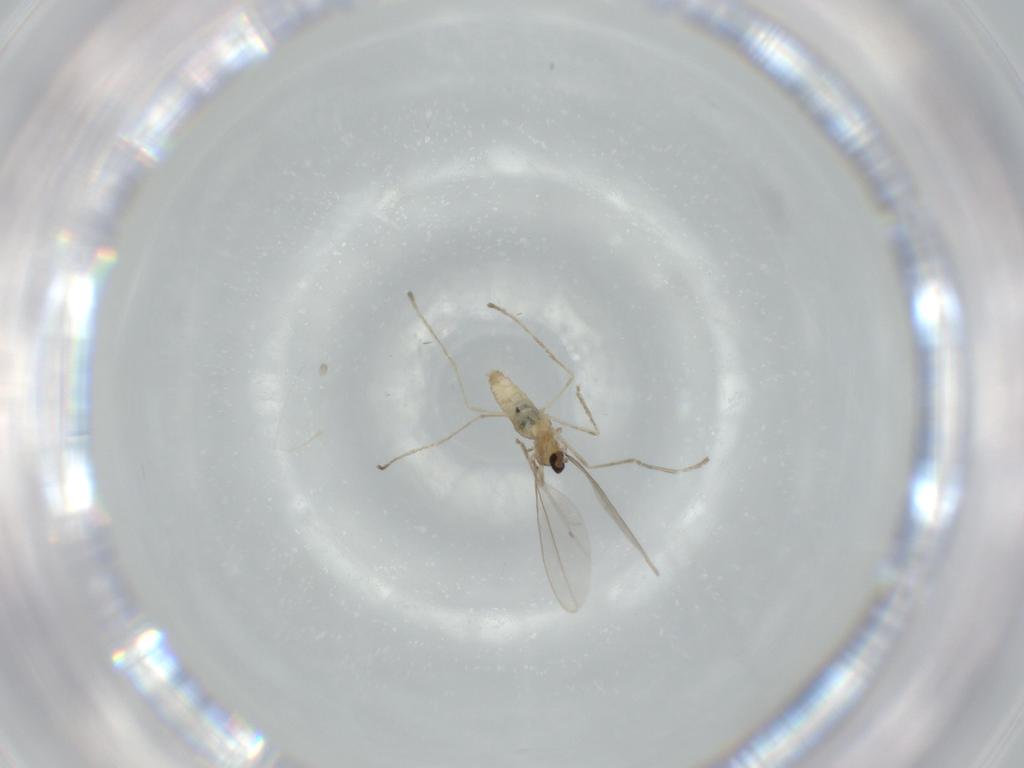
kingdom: Animalia
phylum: Arthropoda
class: Insecta
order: Diptera
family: Cecidomyiidae
